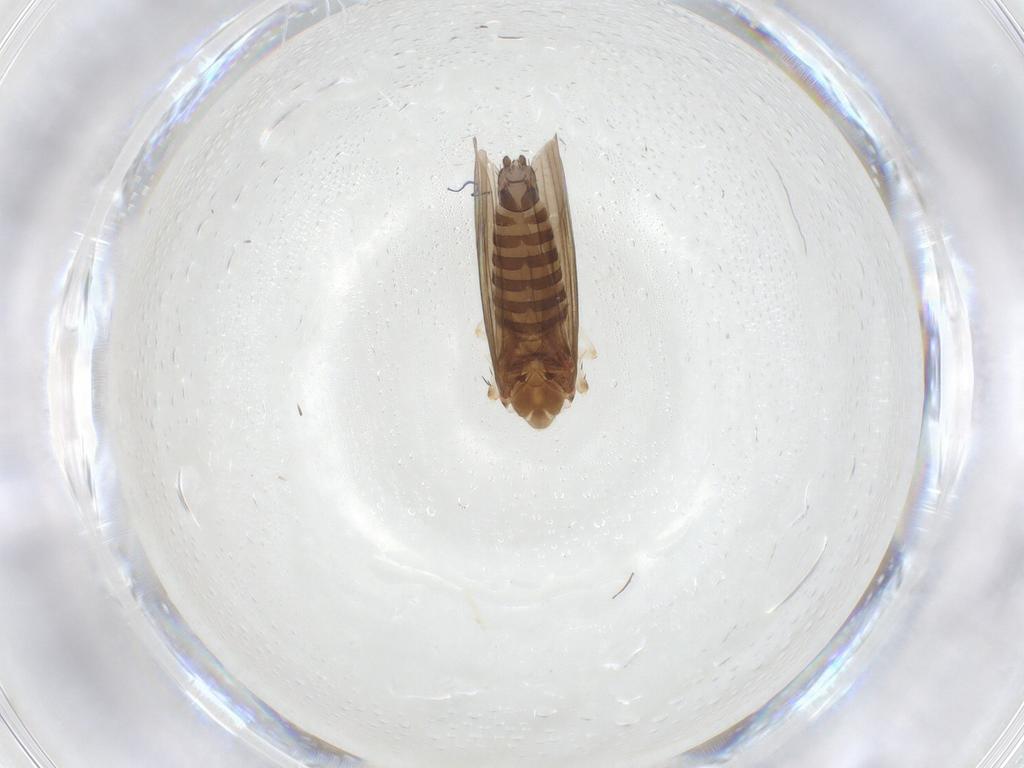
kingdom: Animalia
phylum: Arthropoda
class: Insecta
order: Hemiptera
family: Cicadellidae
